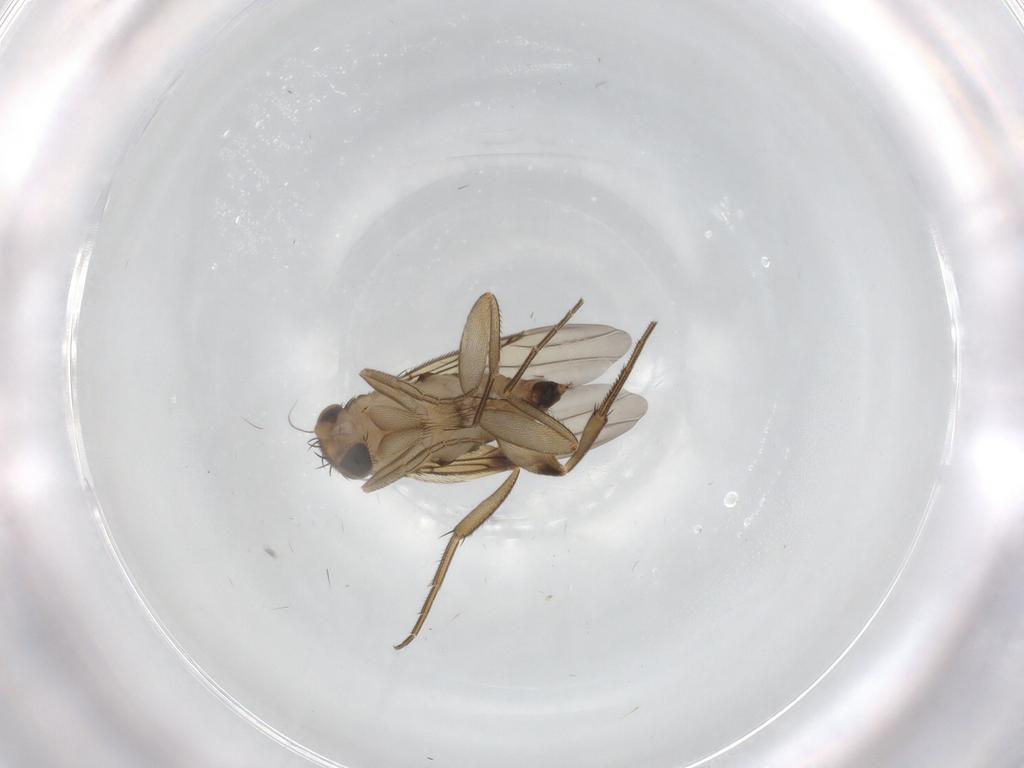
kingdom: Animalia
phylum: Arthropoda
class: Insecta
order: Diptera
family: Phoridae
